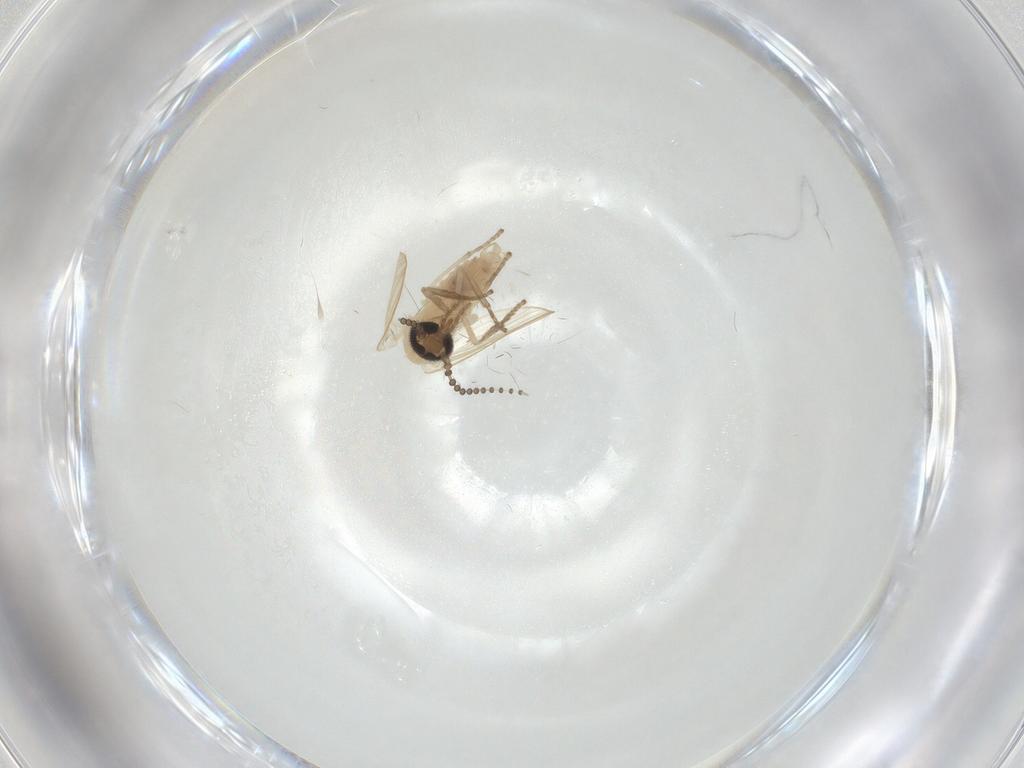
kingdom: Animalia
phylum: Arthropoda
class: Insecta
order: Diptera
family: Psychodidae
